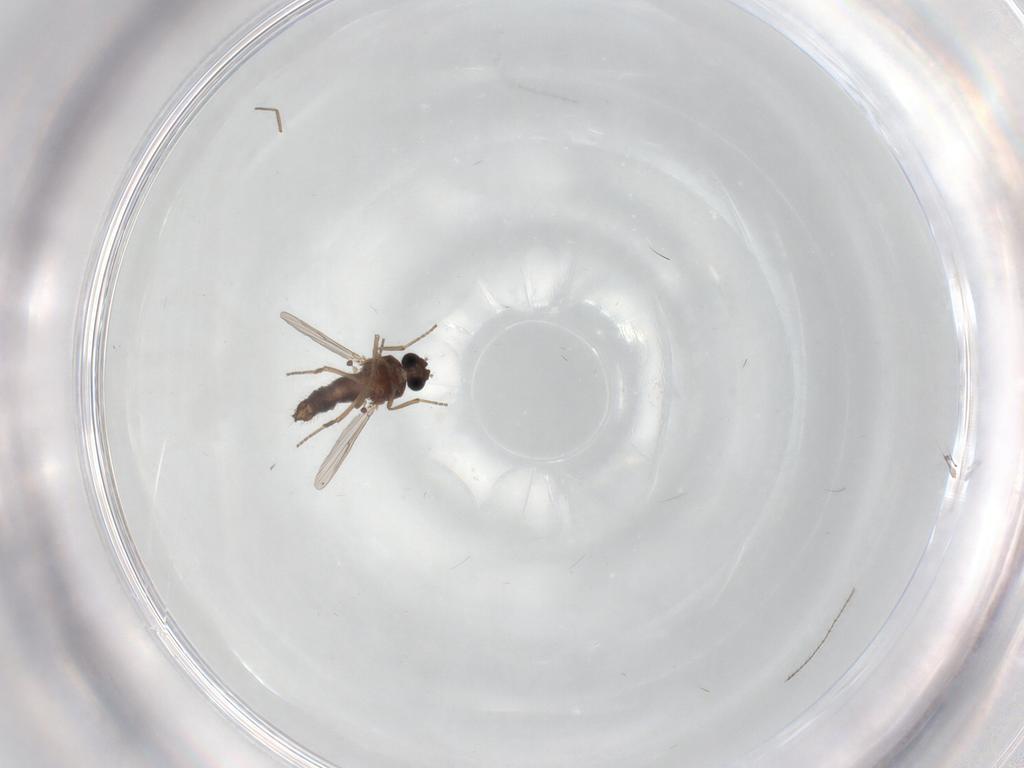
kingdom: Animalia
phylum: Arthropoda
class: Insecta
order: Diptera
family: Ceratopogonidae
